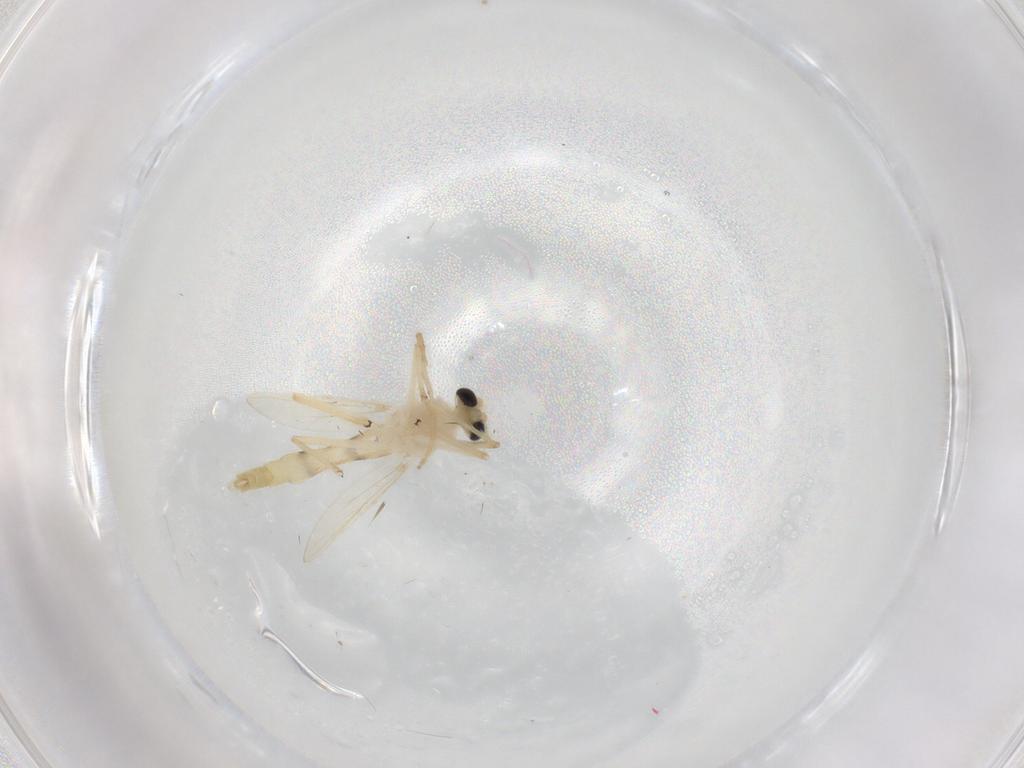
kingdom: Animalia
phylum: Arthropoda
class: Insecta
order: Diptera
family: Chironomidae
